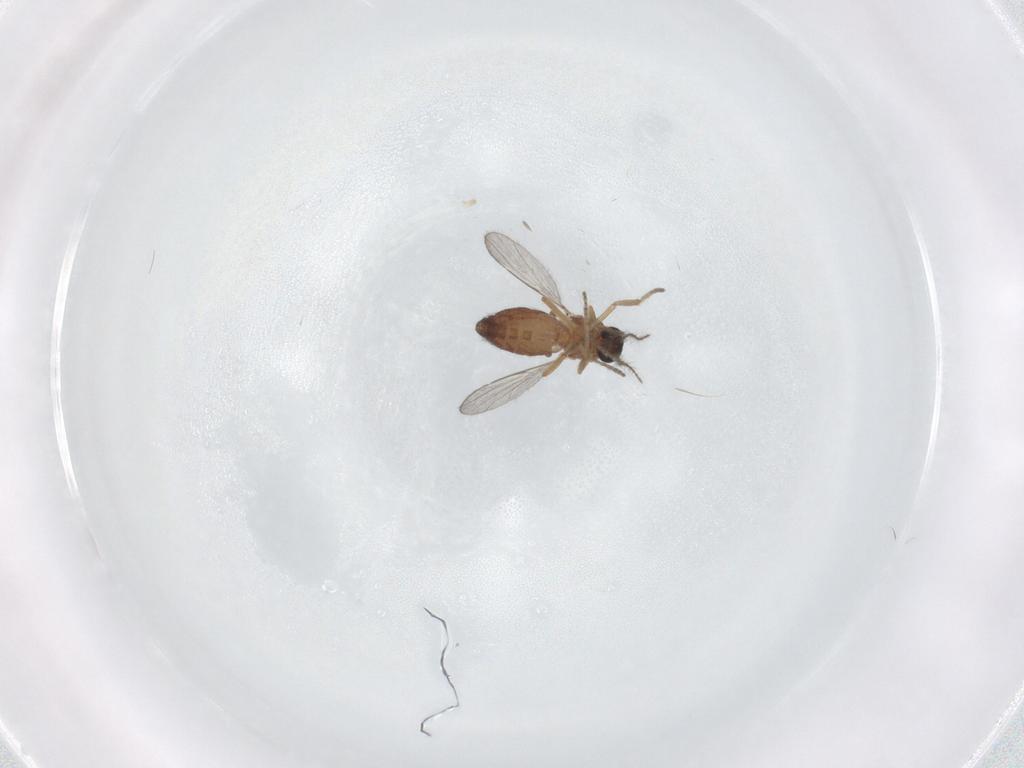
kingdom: Animalia
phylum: Arthropoda
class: Insecta
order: Diptera
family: Ceratopogonidae
